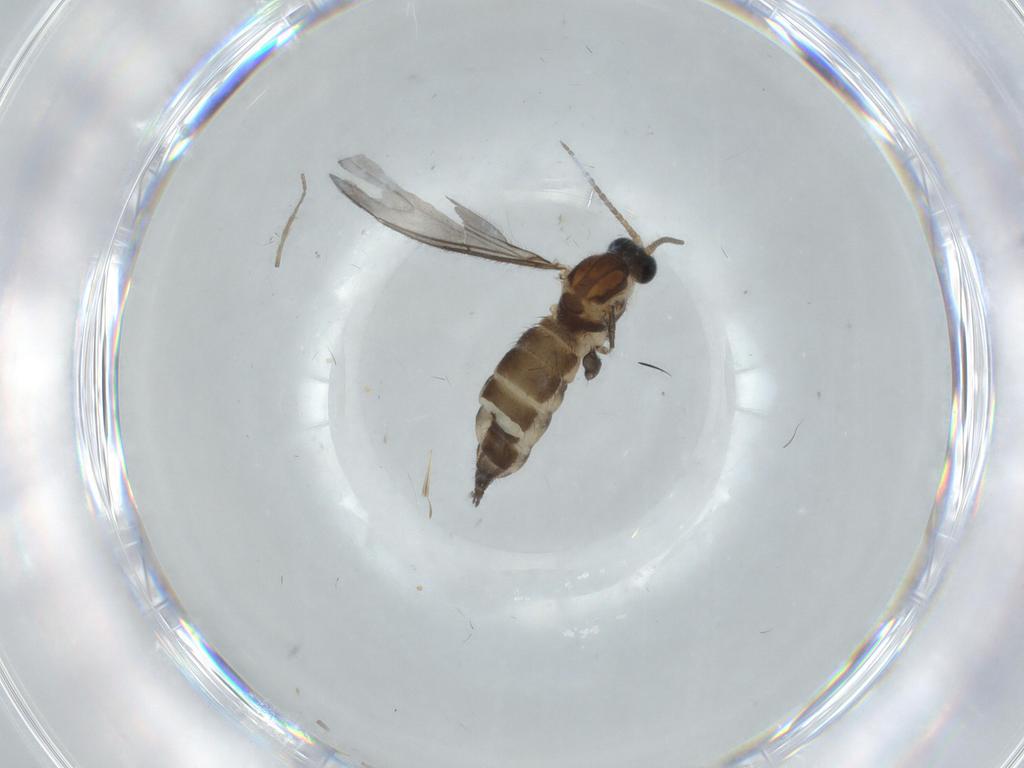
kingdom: Animalia
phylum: Arthropoda
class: Insecta
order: Diptera
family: Sciaridae
